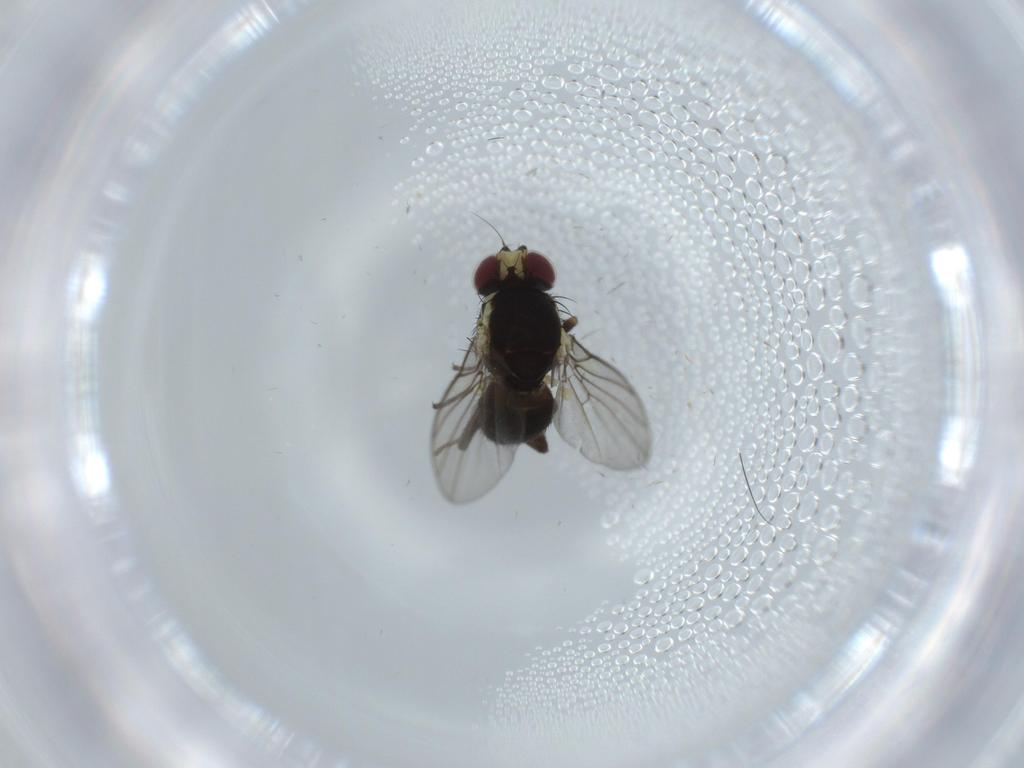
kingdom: Animalia
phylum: Arthropoda
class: Insecta
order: Diptera
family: Agromyzidae
